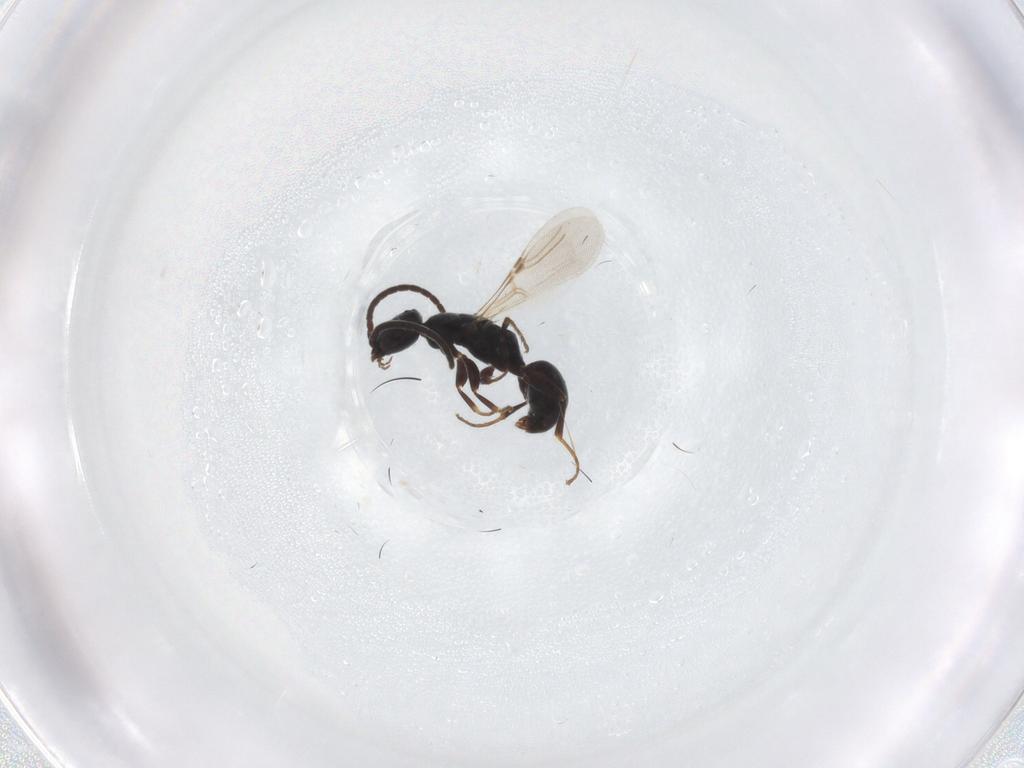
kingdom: Animalia
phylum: Arthropoda
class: Insecta
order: Hymenoptera
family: Bethylidae
